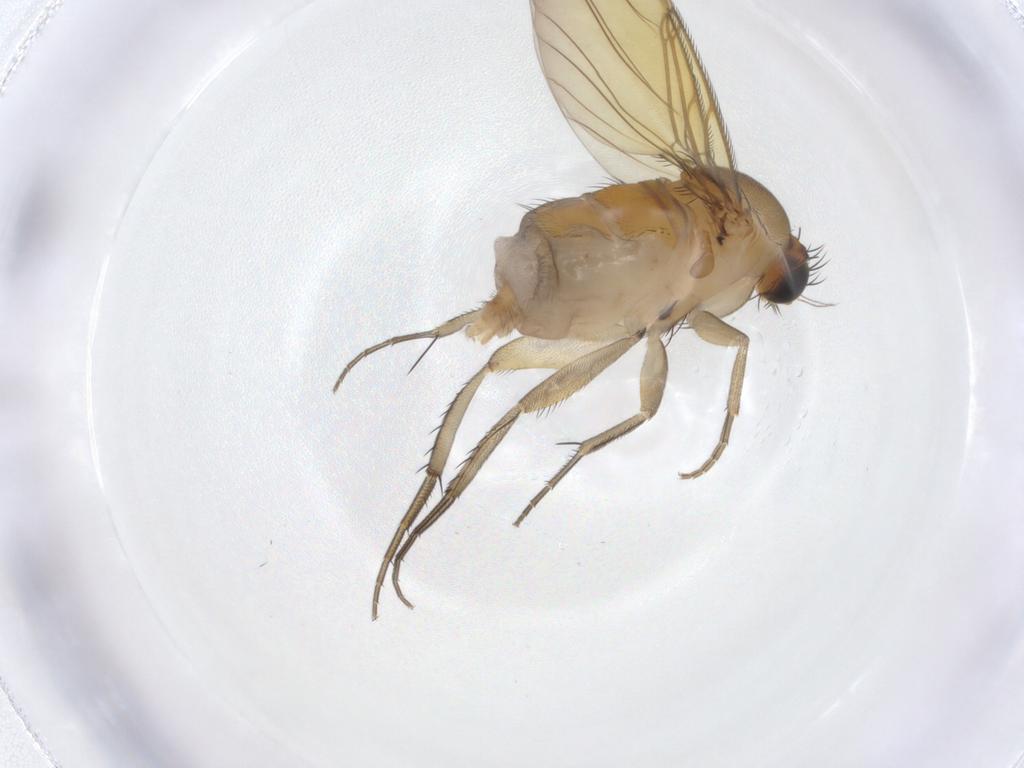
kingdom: Animalia
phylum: Arthropoda
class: Insecta
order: Diptera
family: Phoridae
